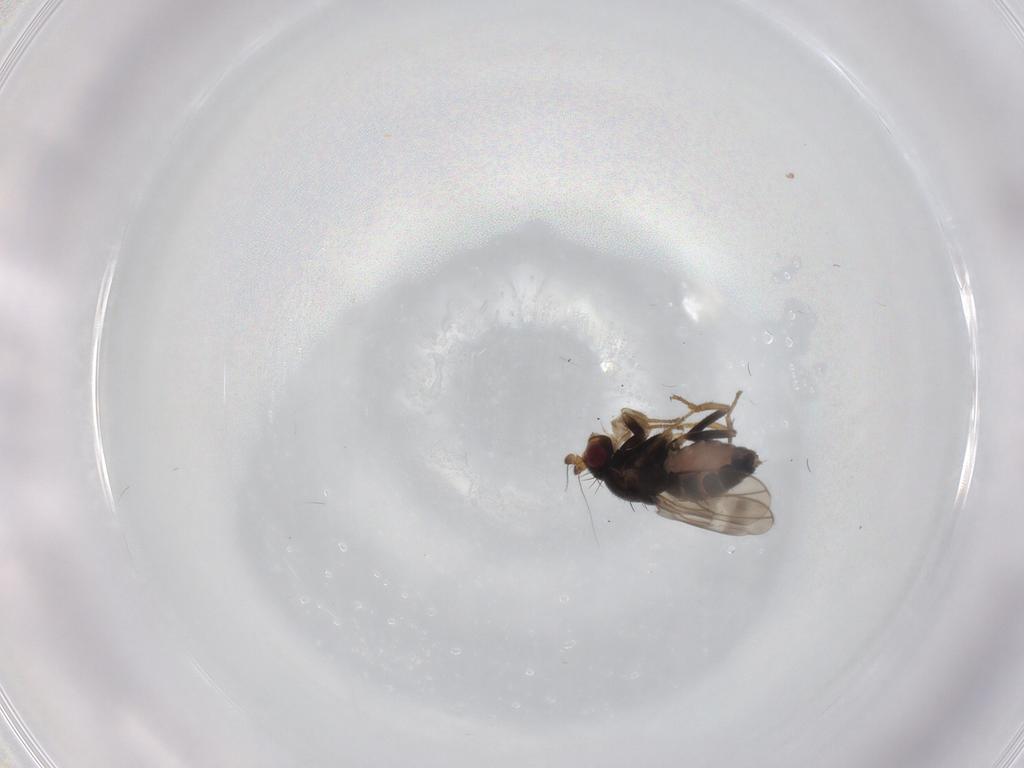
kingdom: Animalia
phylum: Arthropoda
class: Insecta
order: Diptera
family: Sphaeroceridae
